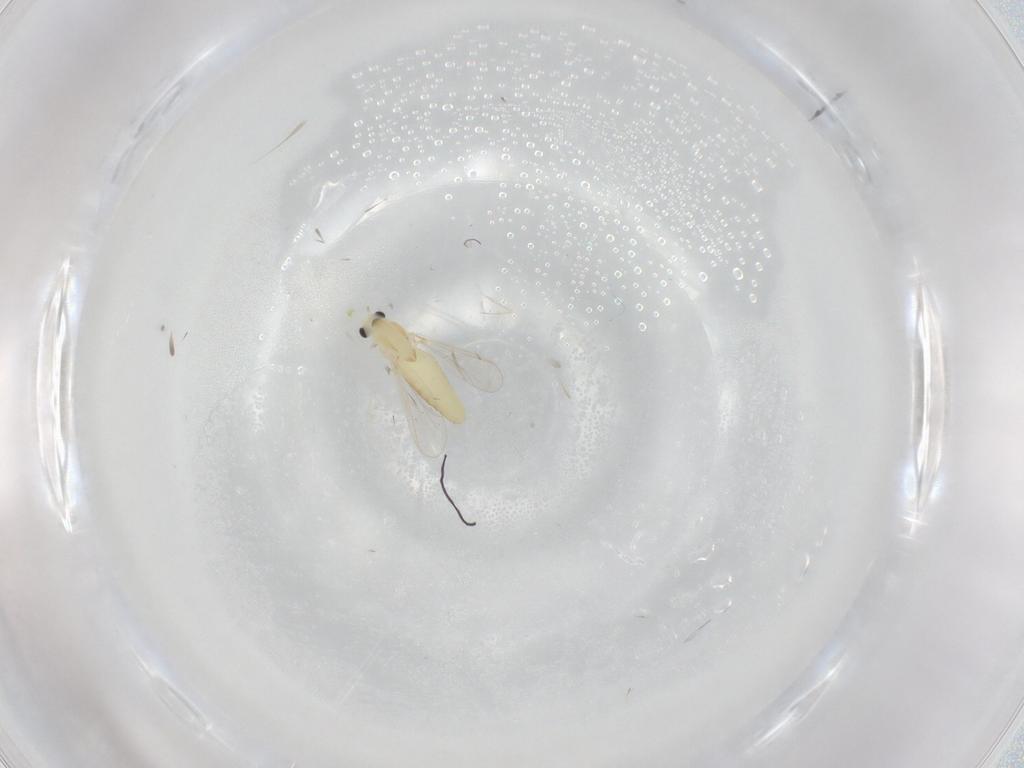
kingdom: Animalia
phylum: Arthropoda
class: Insecta
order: Diptera
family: Chironomidae
